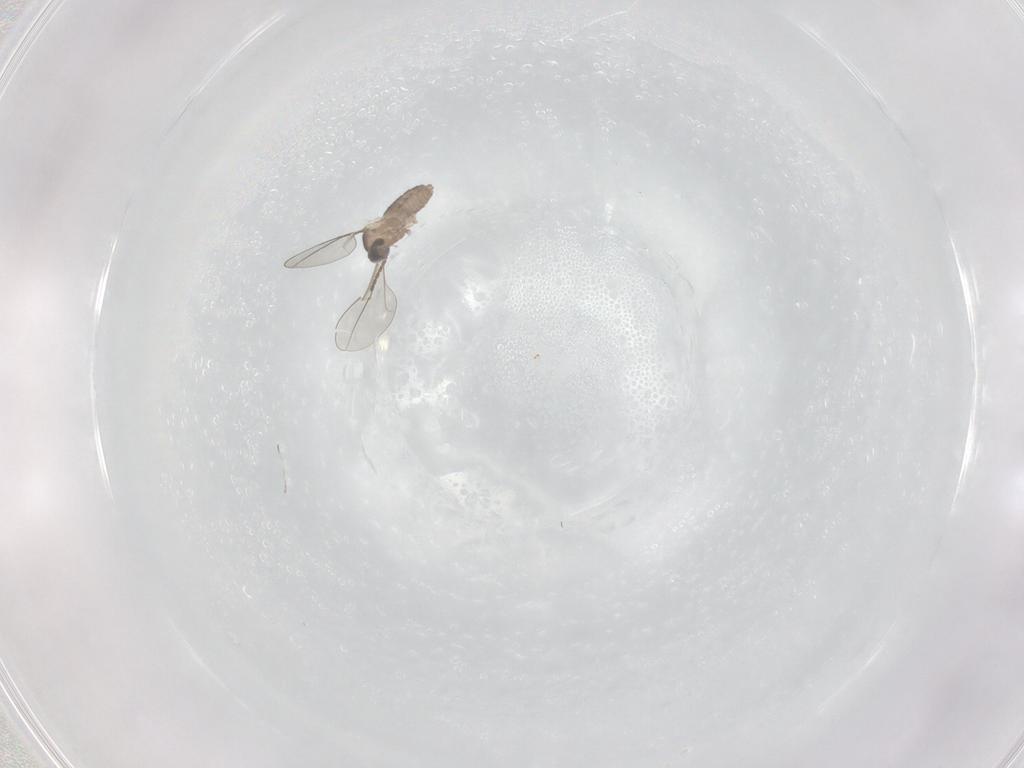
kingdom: Animalia
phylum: Arthropoda
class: Insecta
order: Diptera
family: Cecidomyiidae
